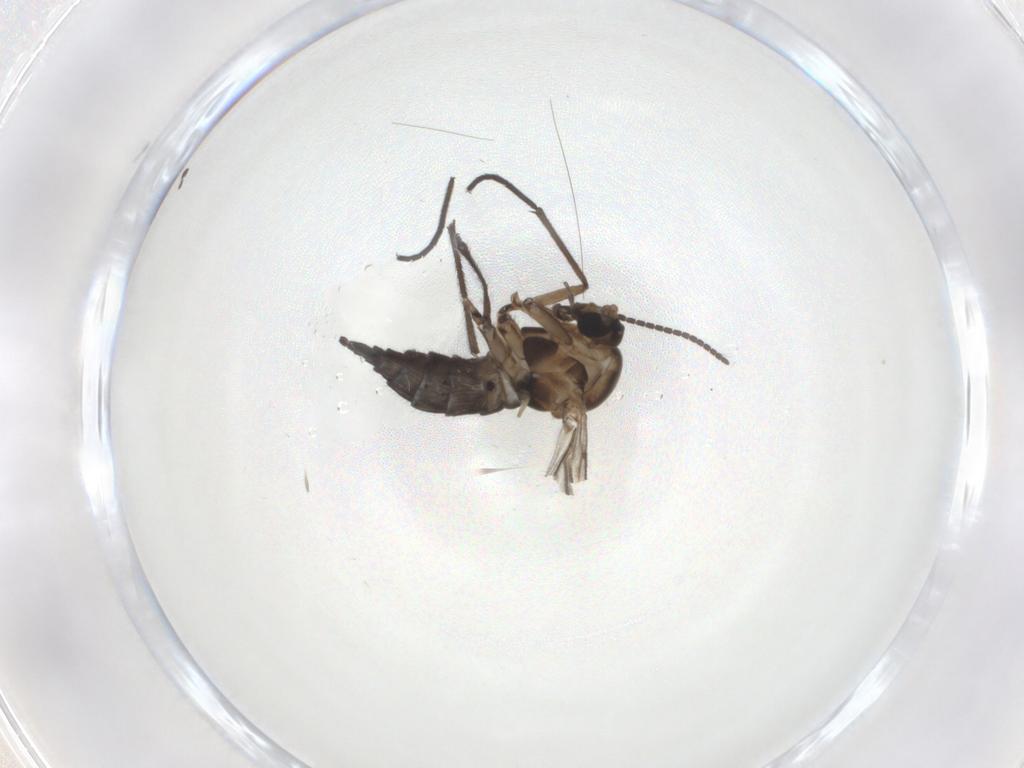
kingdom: Animalia
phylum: Arthropoda
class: Insecta
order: Diptera
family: Sciaridae
